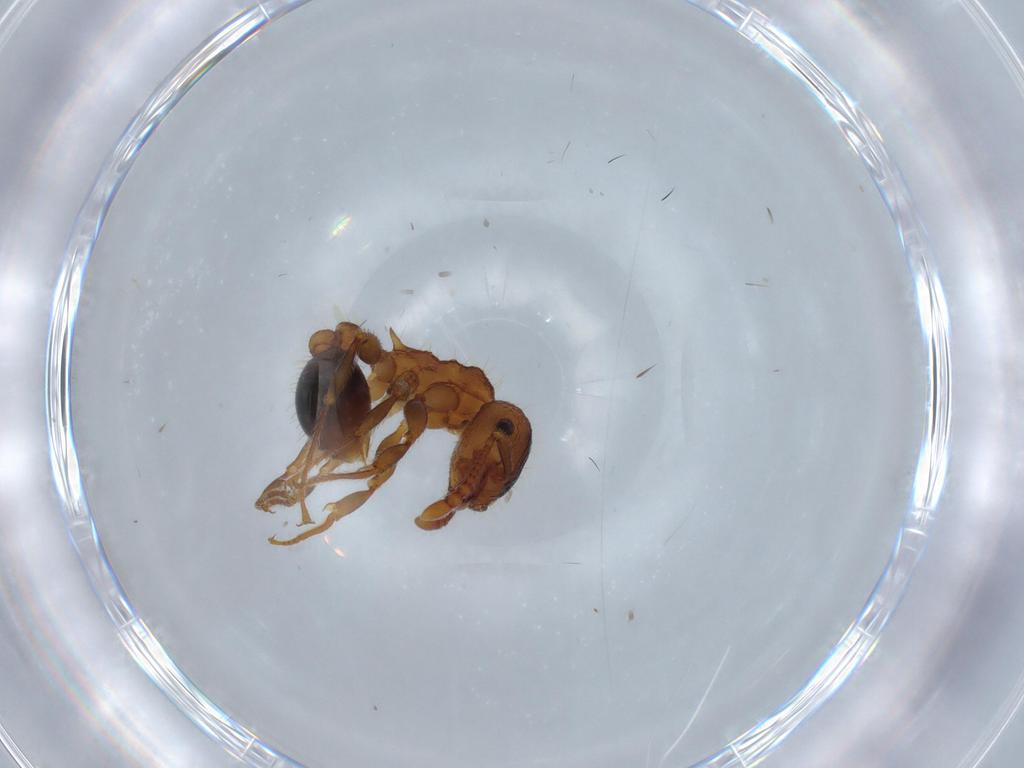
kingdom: Animalia
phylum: Arthropoda
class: Insecta
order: Hymenoptera
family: Formicidae
